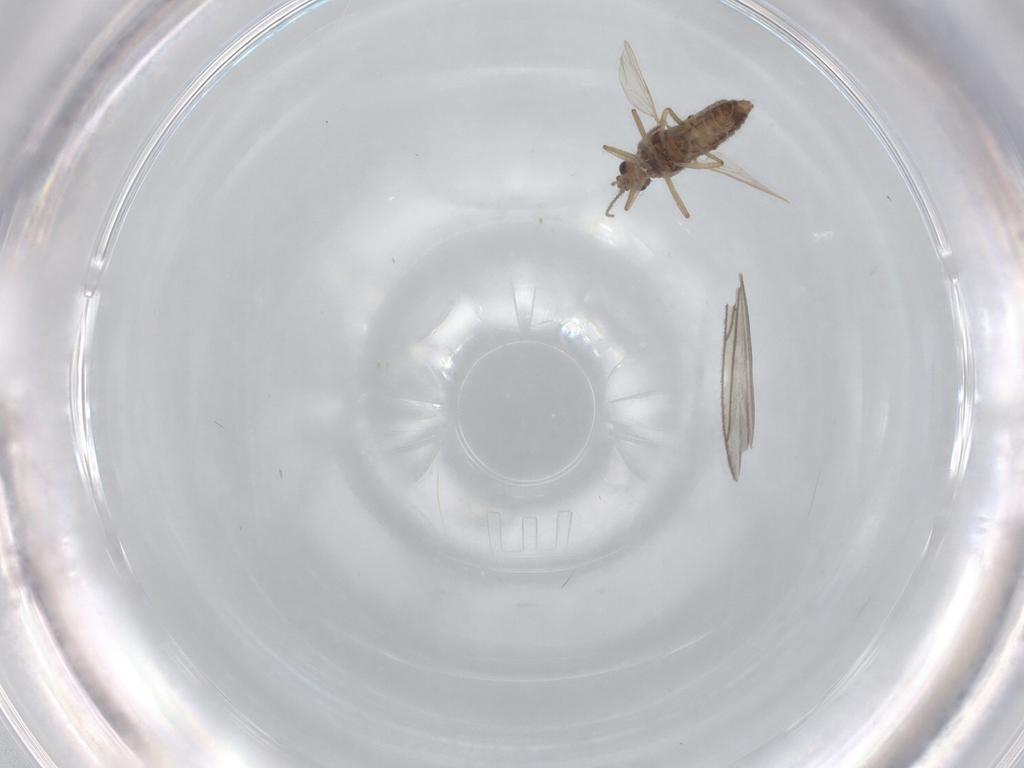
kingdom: Animalia
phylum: Arthropoda
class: Insecta
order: Diptera
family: Ceratopogonidae
